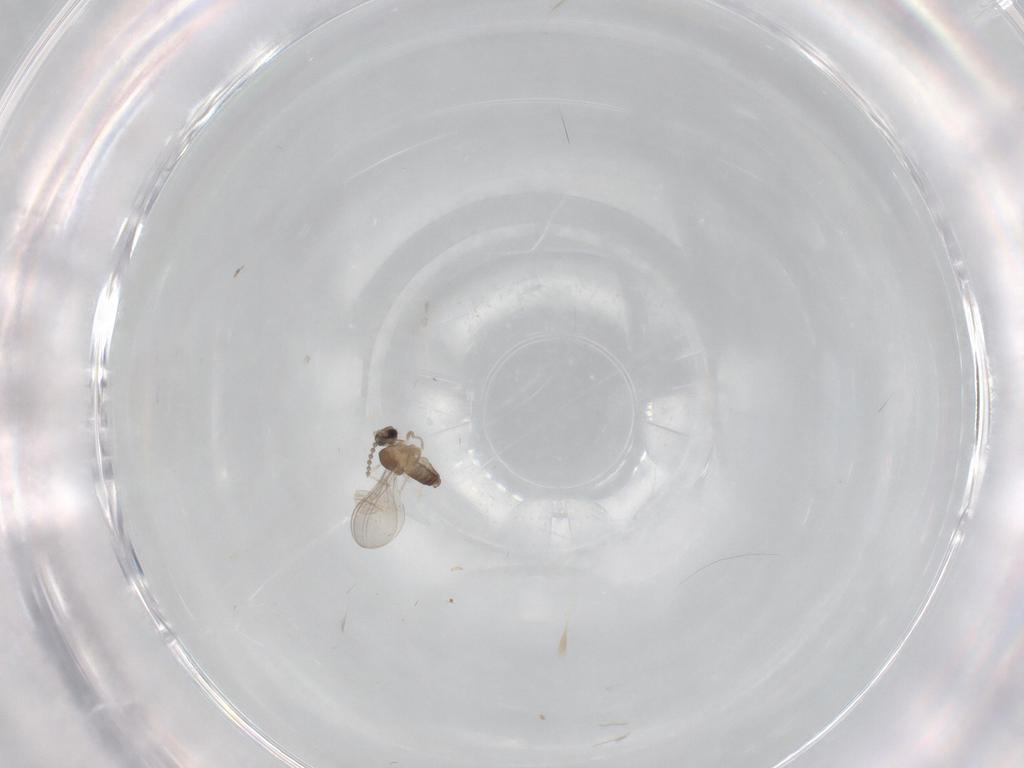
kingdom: Animalia
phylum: Arthropoda
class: Insecta
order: Diptera
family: Cecidomyiidae
